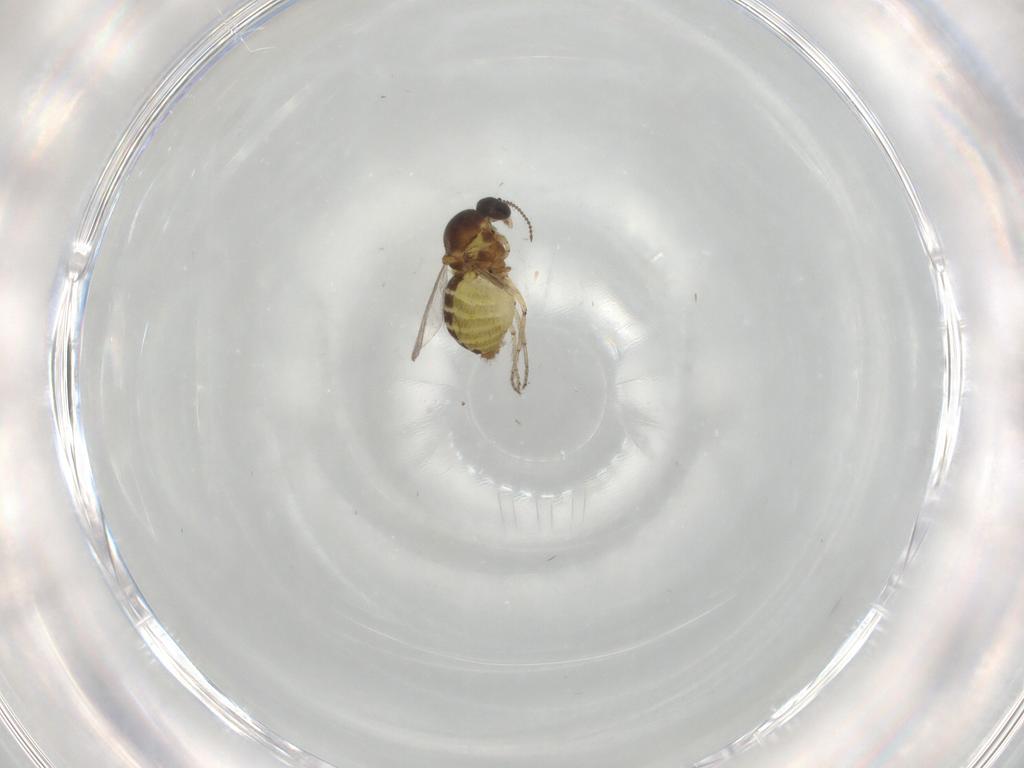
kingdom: Animalia
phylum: Arthropoda
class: Insecta
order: Diptera
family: Ceratopogonidae
